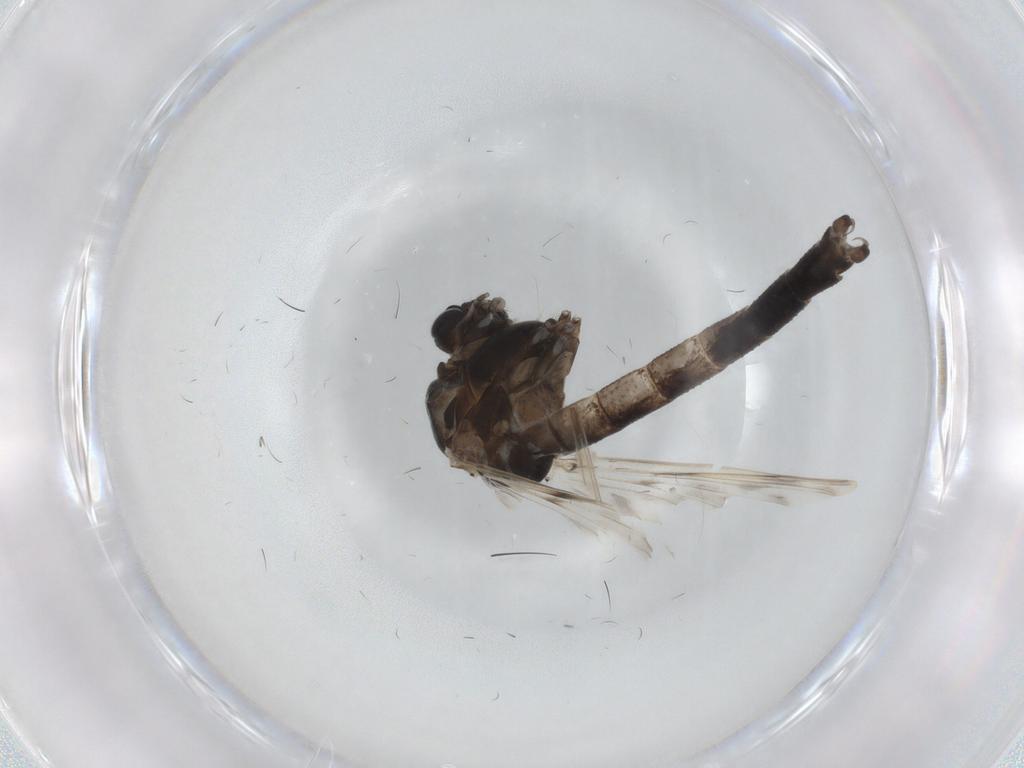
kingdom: Animalia
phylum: Arthropoda
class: Insecta
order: Diptera
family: Chironomidae
